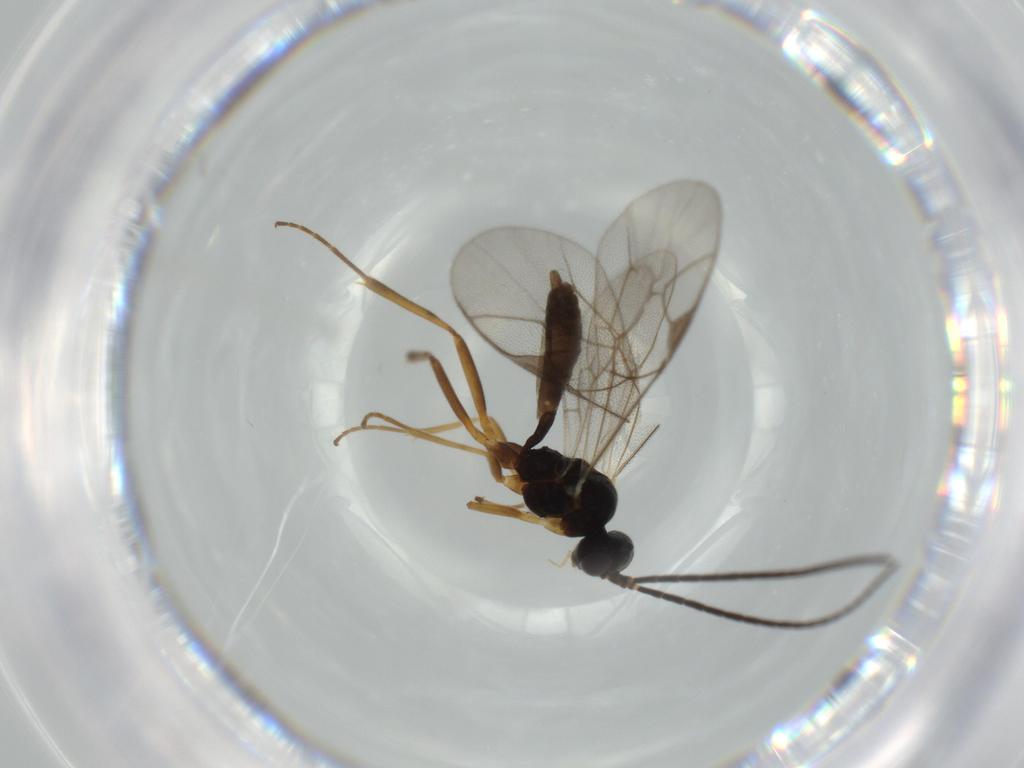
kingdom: Animalia
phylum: Arthropoda
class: Insecta
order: Hymenoptera
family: Ichneumonidae
